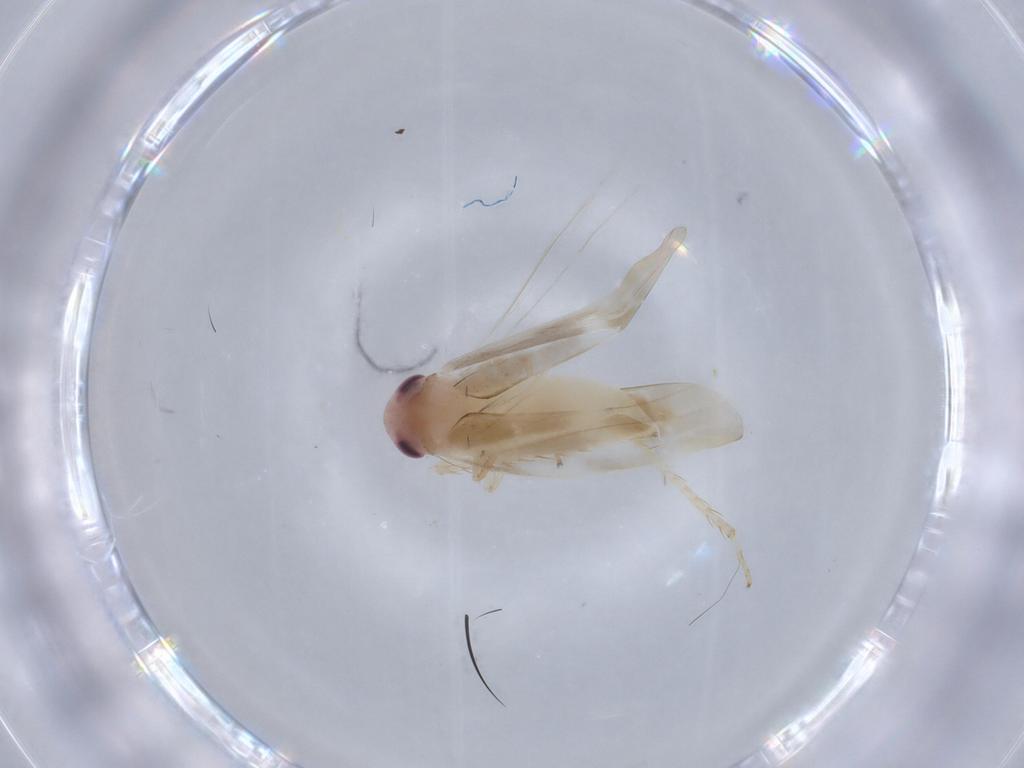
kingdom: Animalia
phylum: Arthropoda
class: Insecta
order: Hemiptera
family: Cicadellidae
